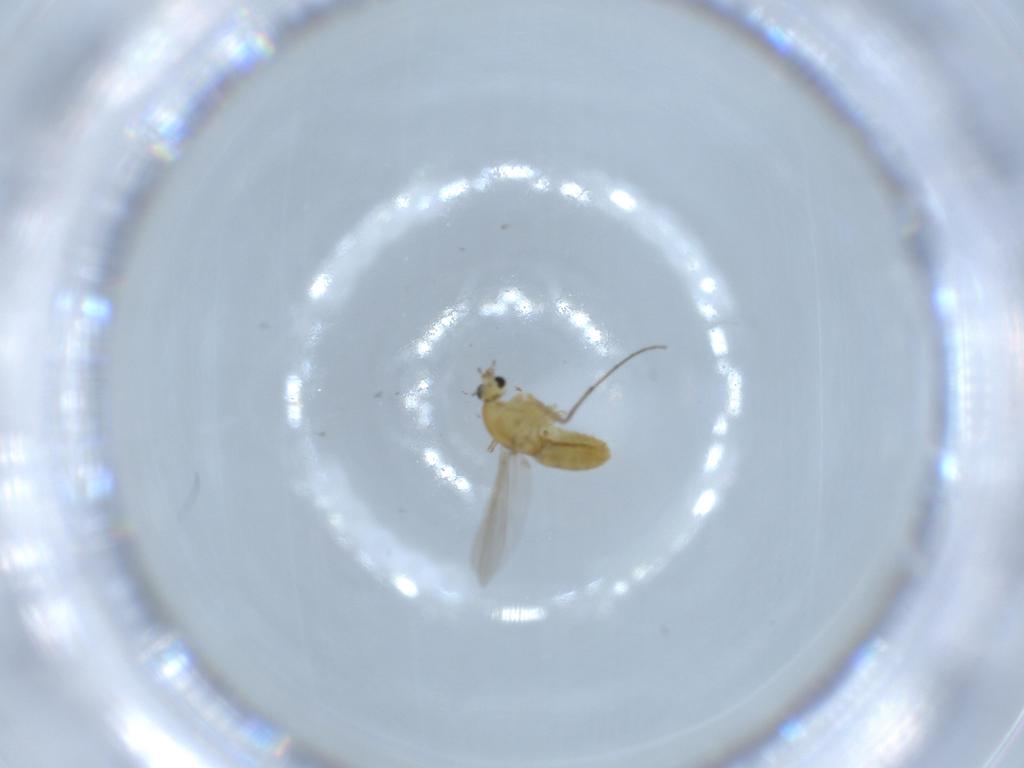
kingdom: Animalia
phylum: Arthropoda
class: Insecta
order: Diptera
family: Chironomidae
